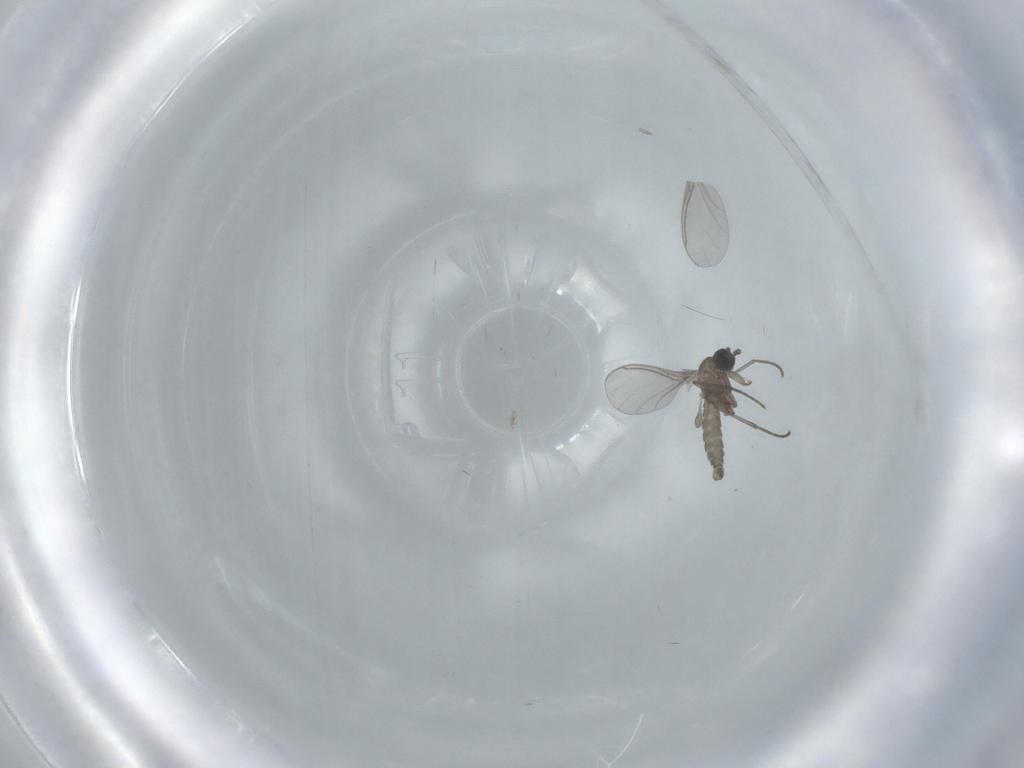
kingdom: Animalia
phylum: Arthropoda
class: Insecta
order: Diptera
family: Sciaridae
